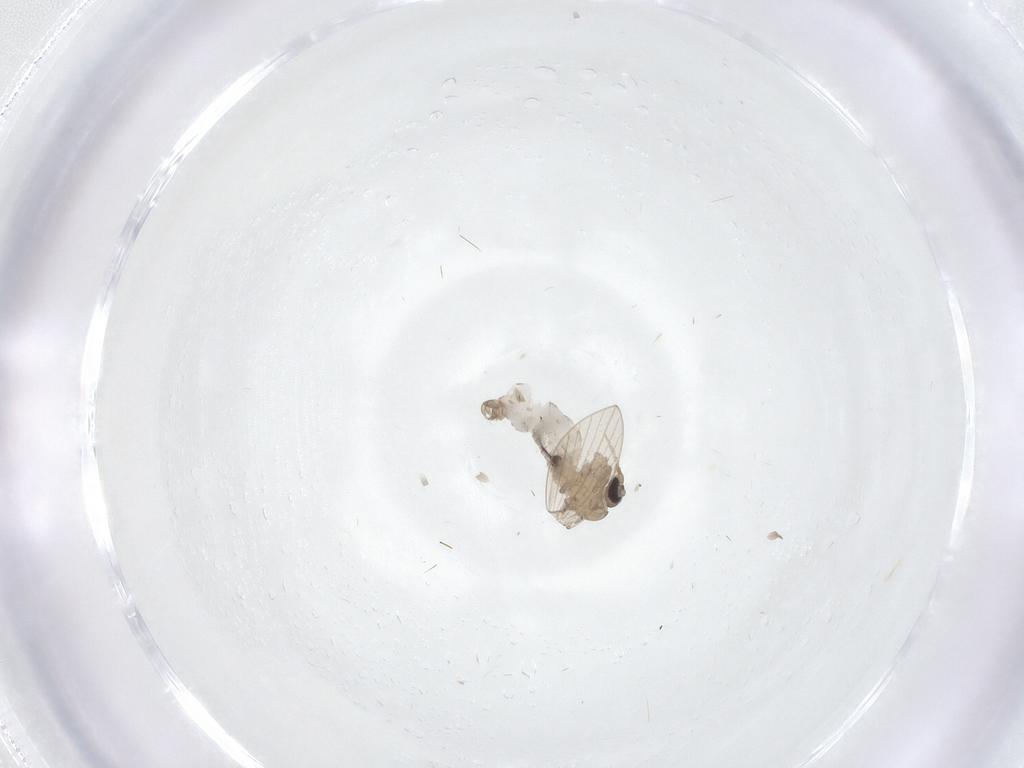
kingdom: Animalia
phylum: Arthropoda
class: Insecta
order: Diptera
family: Psychodidae
